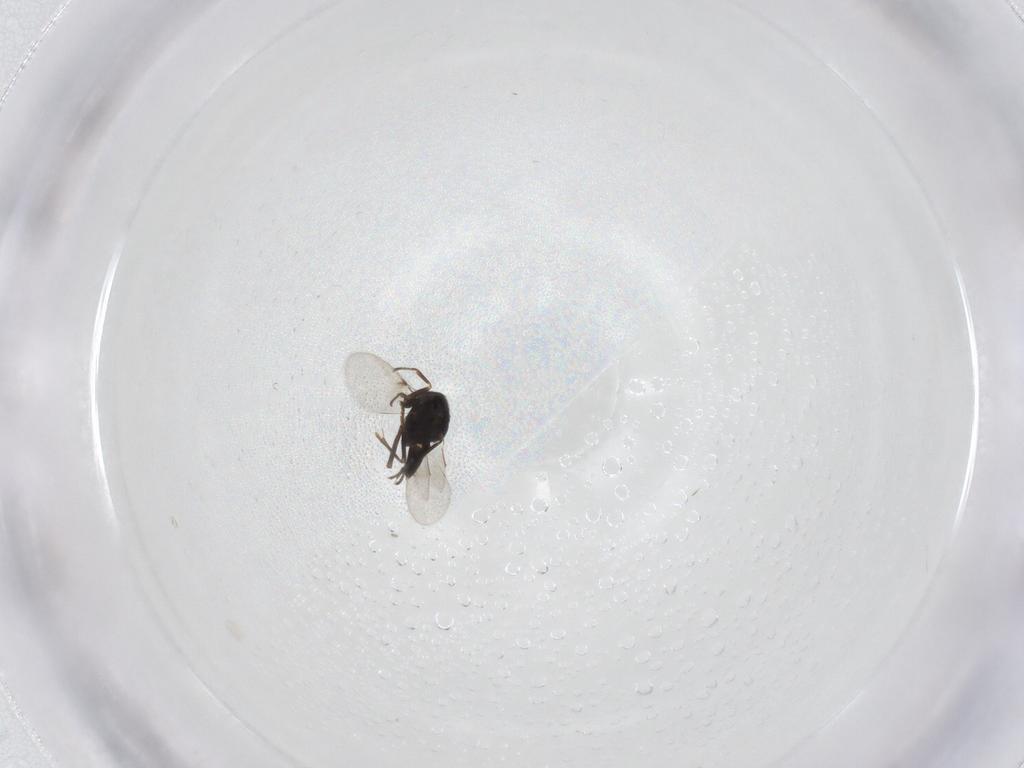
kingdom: Animalia
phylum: Arthropoda
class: Insecta
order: Hymenoptera
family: Encyrtidae
